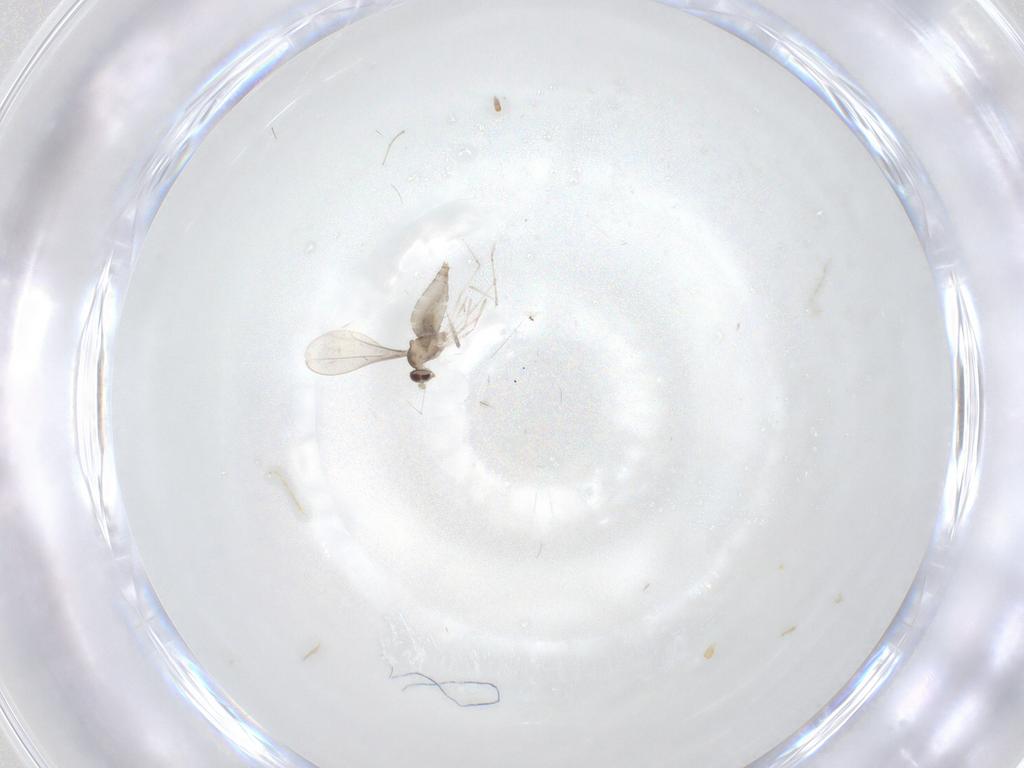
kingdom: Animalia
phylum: Arthropoda
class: Insecta
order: Diptera
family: Cecidomyiidae
